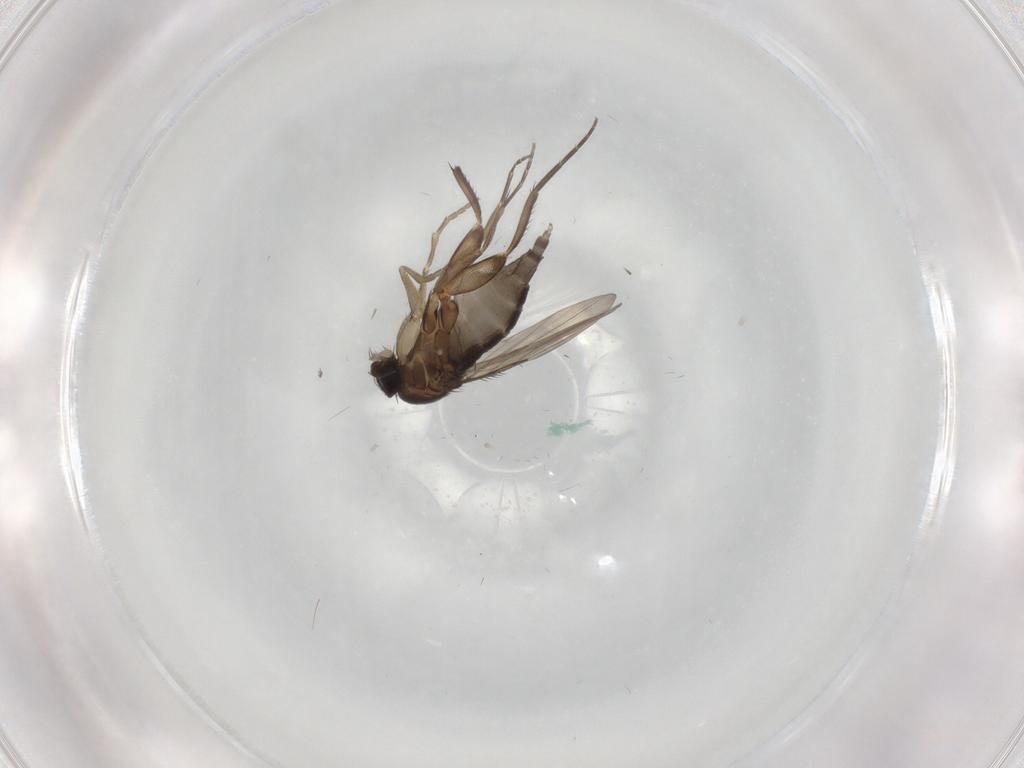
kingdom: Animalia
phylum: Arthropoda
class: Insecta
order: Diptera
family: Phoridae
